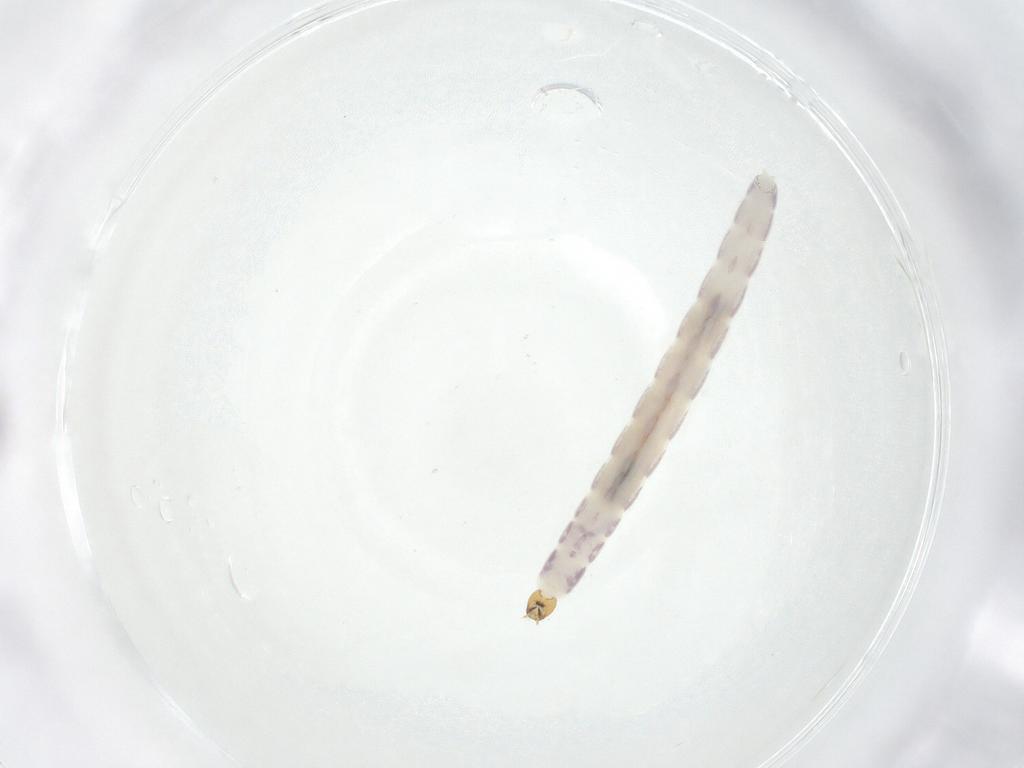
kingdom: Animalia
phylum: Arthropoda
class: Insecta
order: Diptera
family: Chironomidae
